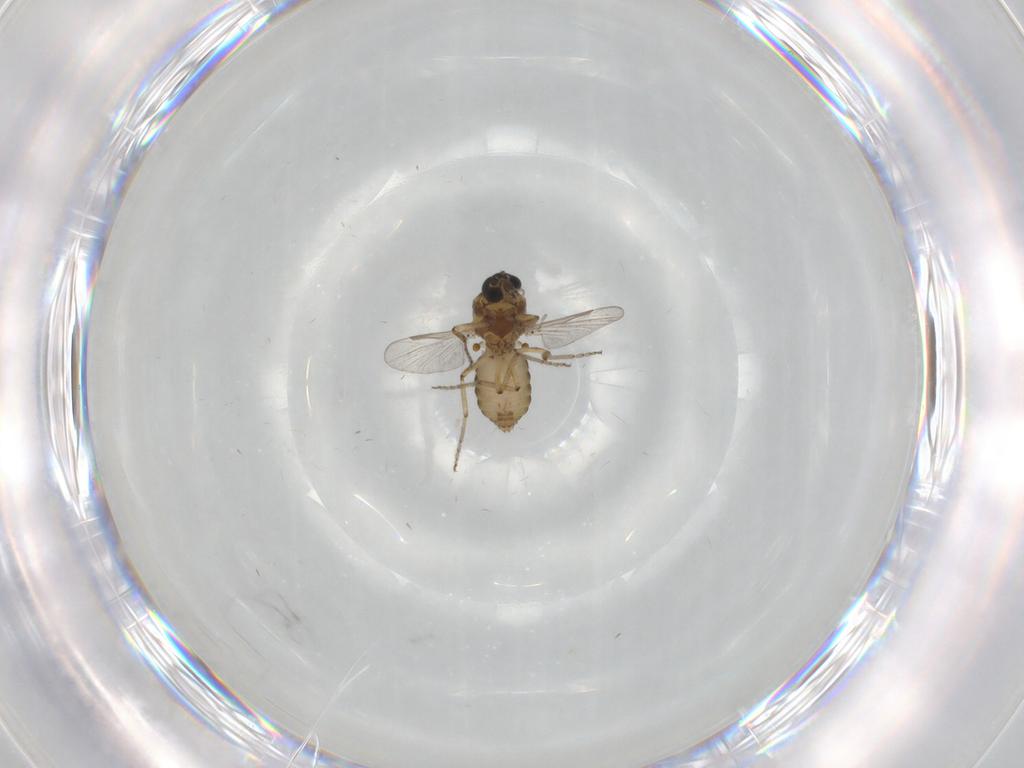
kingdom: Animalia
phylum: Arthropoda
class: Insecta
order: Diptera
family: Ceratopogonidae
